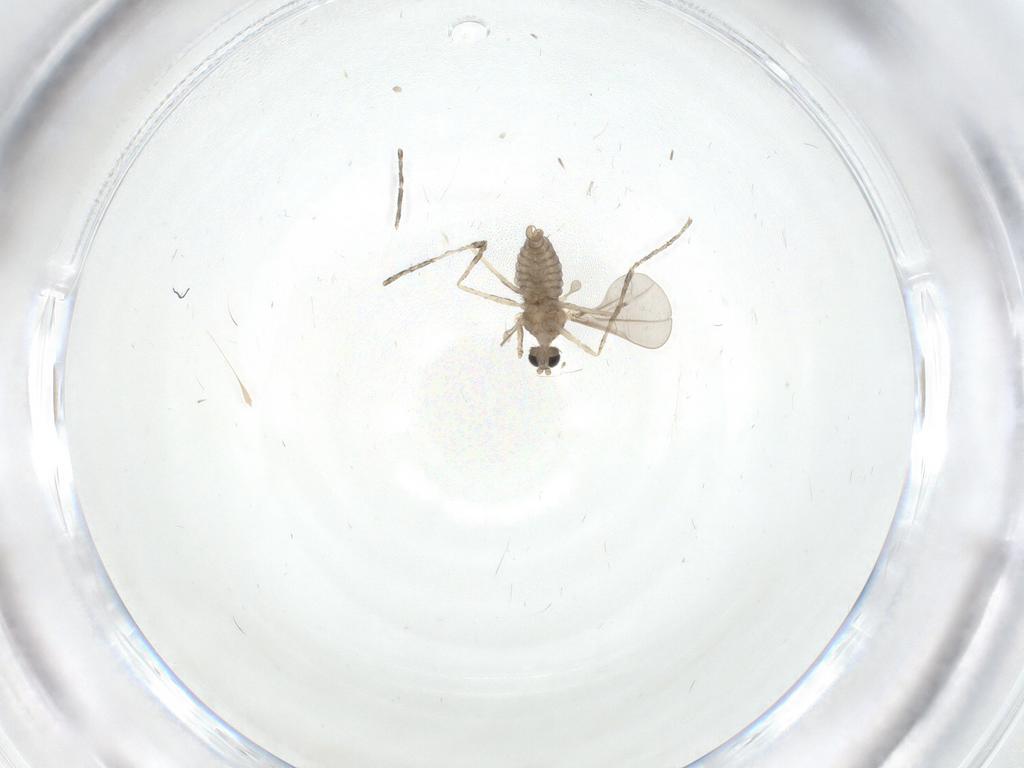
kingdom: Animalia
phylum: Arthropoda
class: Insecta
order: Diptera
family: Cecidomyiidae
